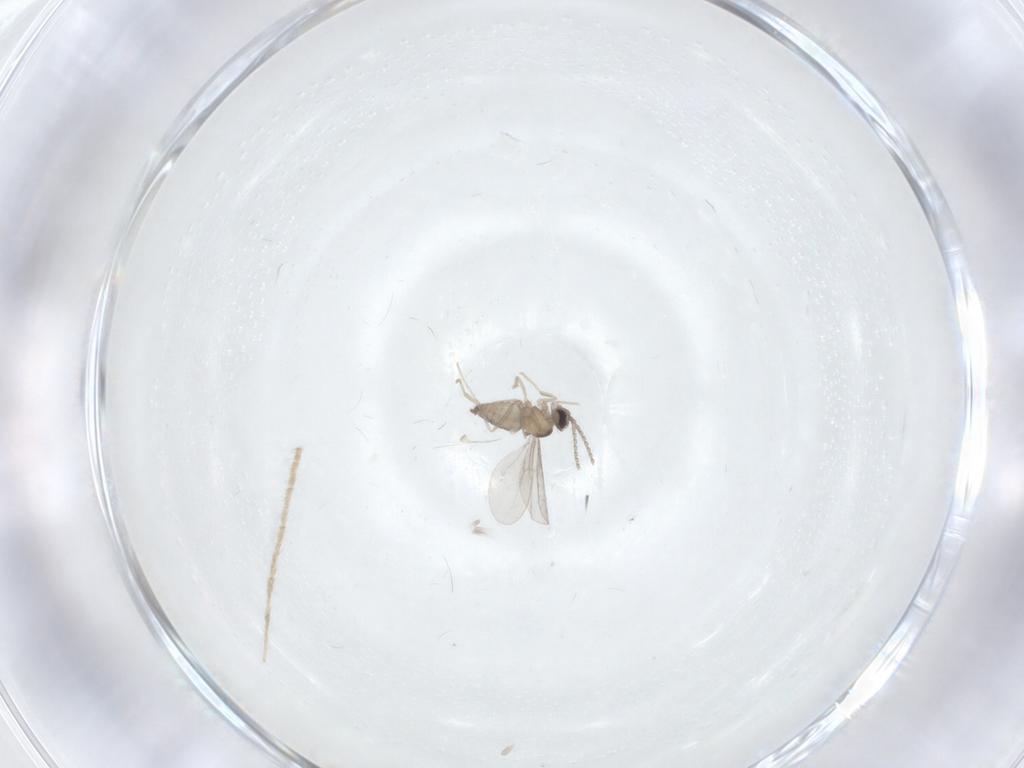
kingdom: Animalia
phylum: Arthropoda
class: Insecta
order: Diptera
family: Cecidomyiidae
